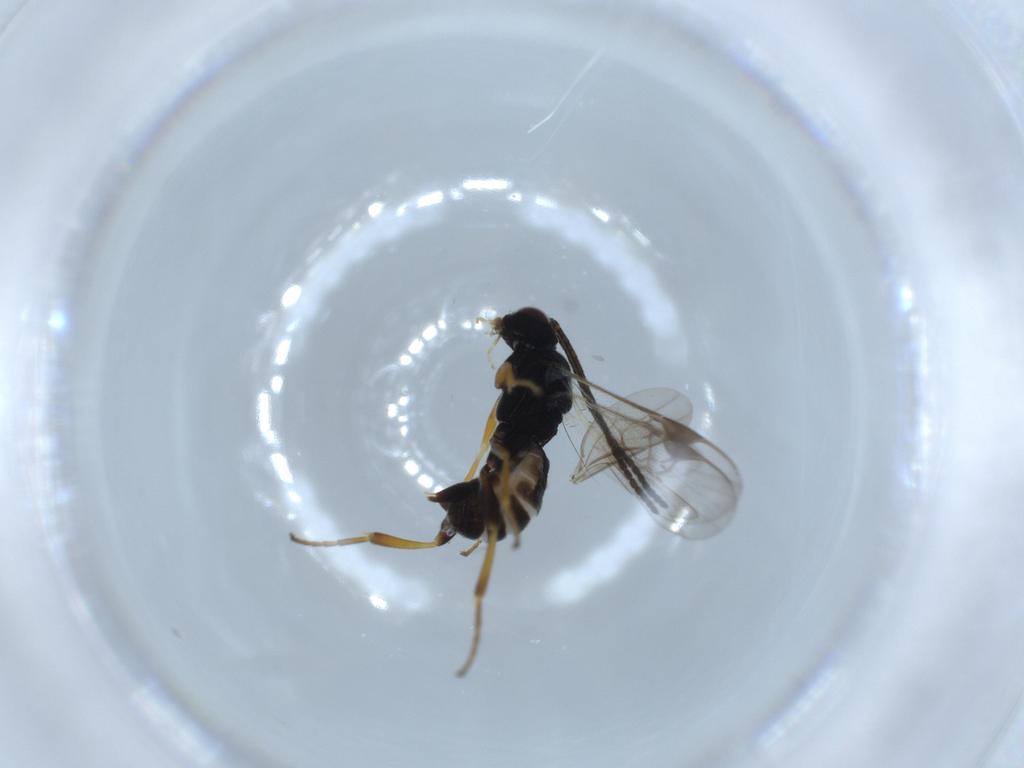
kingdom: Animalia
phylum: Arthropoda
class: Insecta
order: Hymenoptera
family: Braconidae
